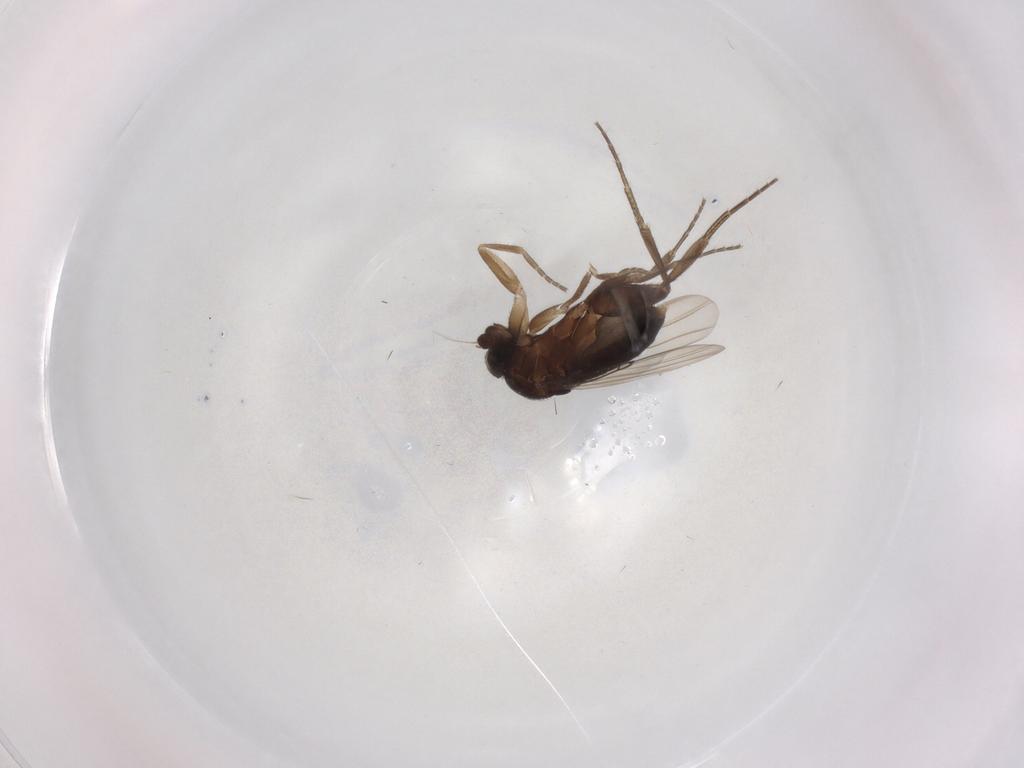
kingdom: Animalia
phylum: Arthropoda
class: Insecta
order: Diptera
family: Phoridae
